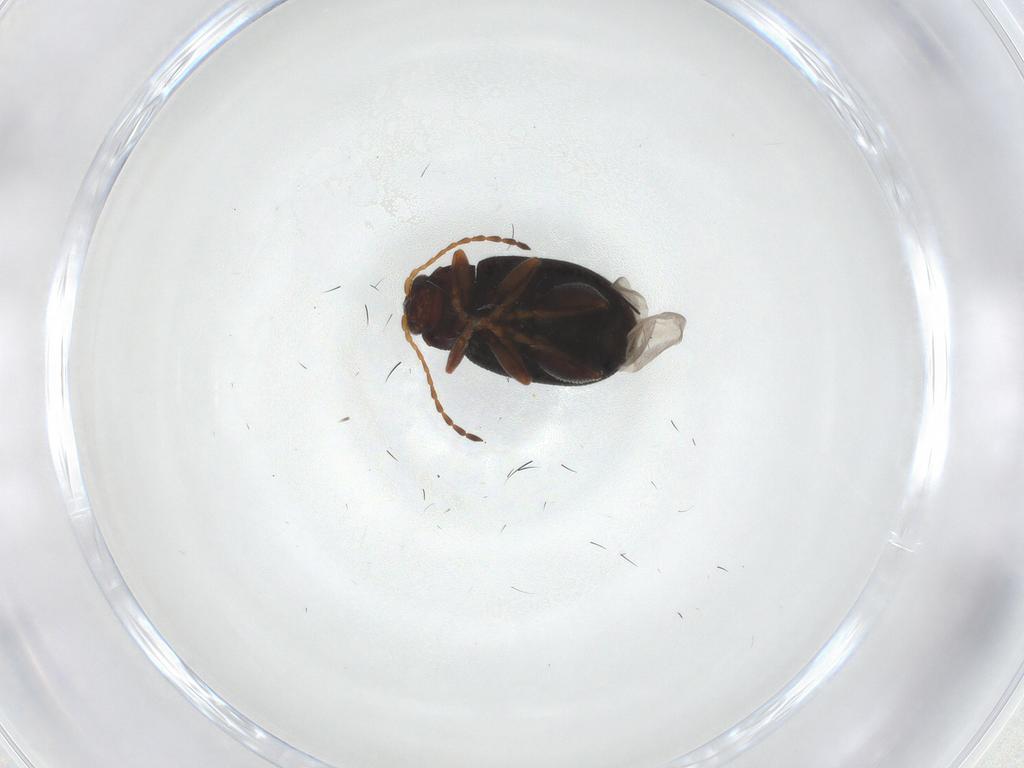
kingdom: Animalia
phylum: Arthropoda
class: Insecta
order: Coleoptera
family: Chrysomelidae
